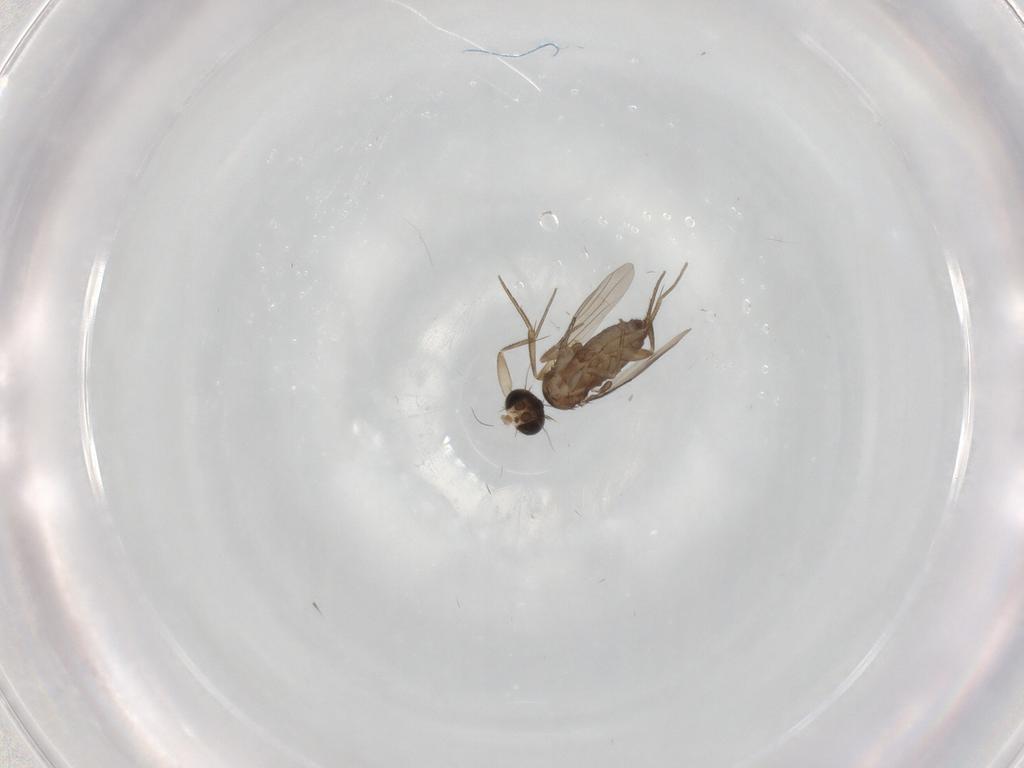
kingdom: Animalia
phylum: Arthropoda
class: Insecta
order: Diptera
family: Phoridae
